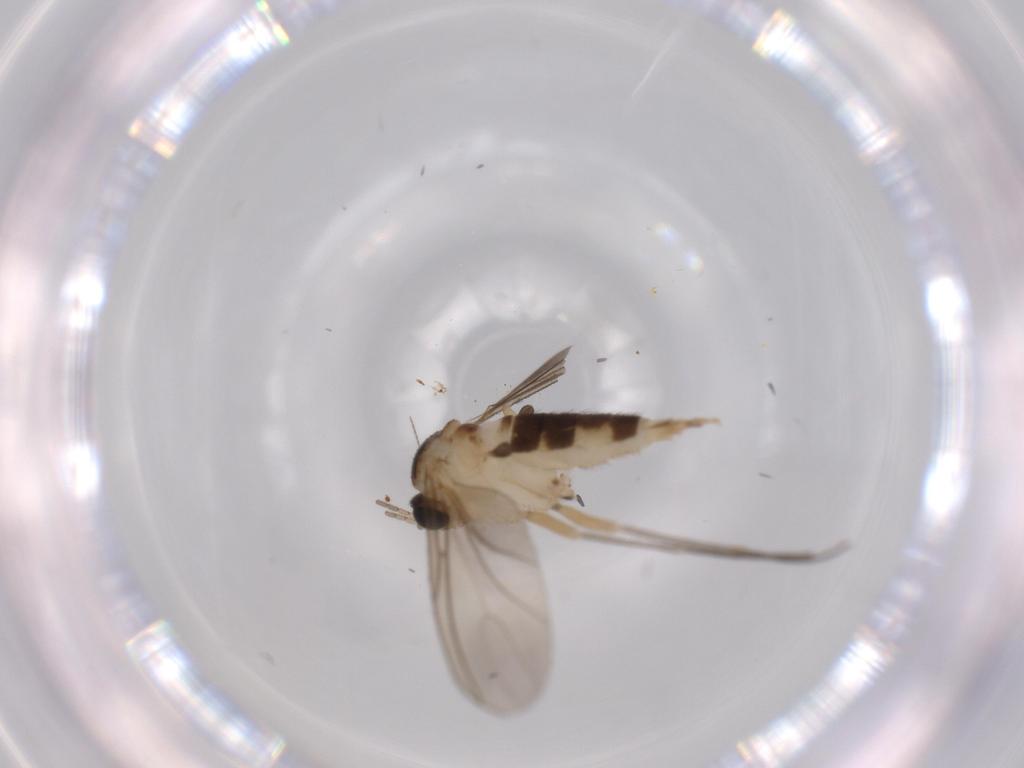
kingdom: Animalia
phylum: Arthropoda
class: Insecta
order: Diptera
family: Sciaridae
